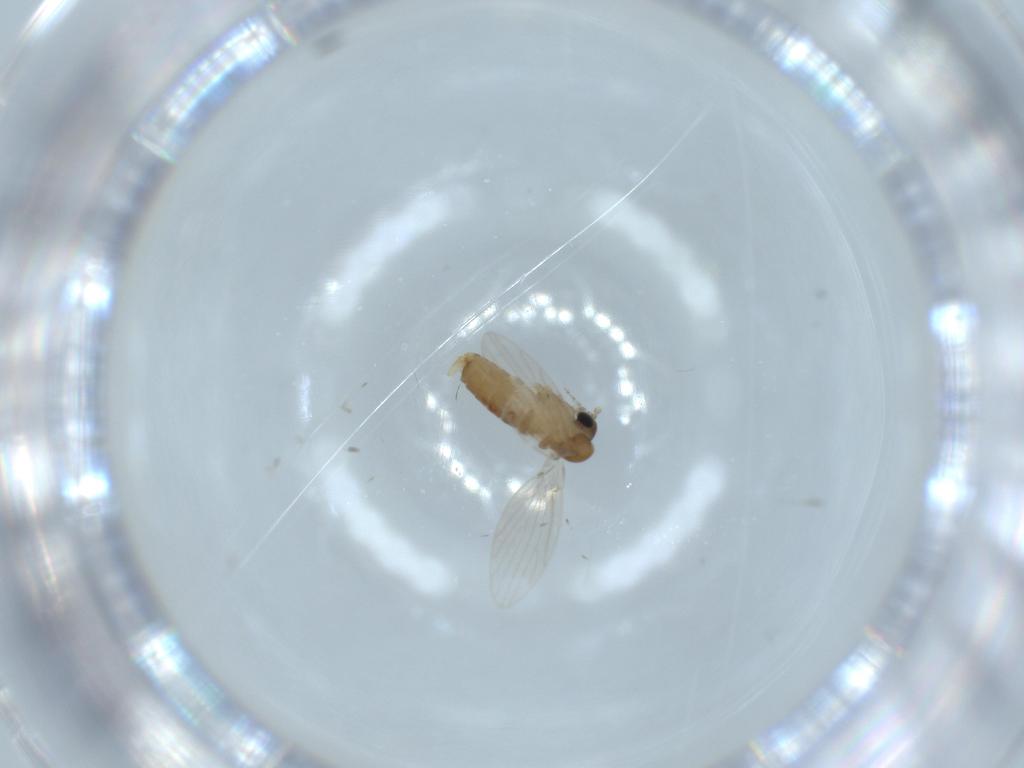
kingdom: Animalia
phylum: Arthropoda
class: Insecta
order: Diptera
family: Psychodidae
